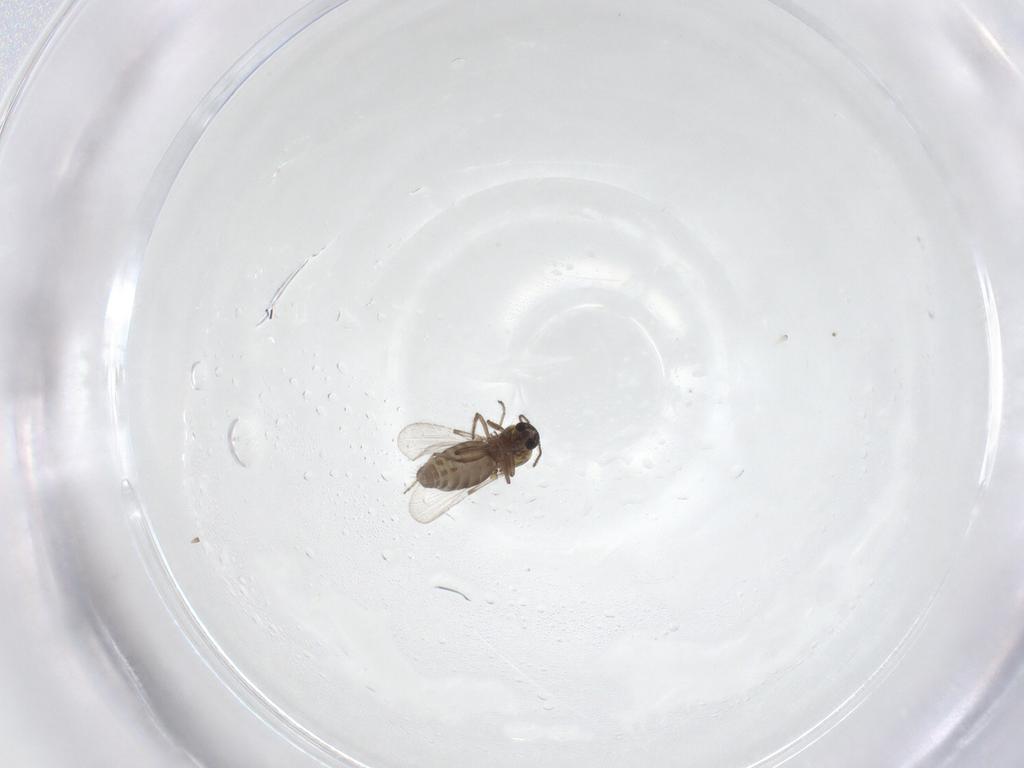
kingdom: Animalia
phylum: Arthropoda
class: Insecta
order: Diptera
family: Ceratopogonidae
